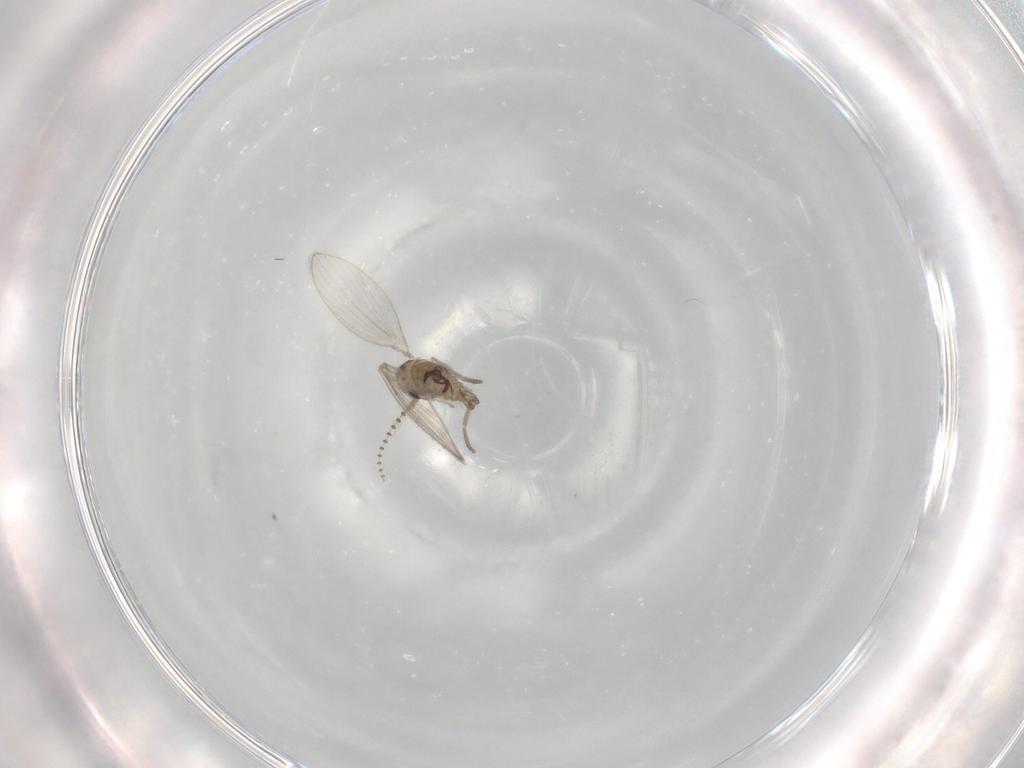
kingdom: Animalia
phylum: Arthropoda
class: Insecta
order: Diptera
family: Psychodidae
